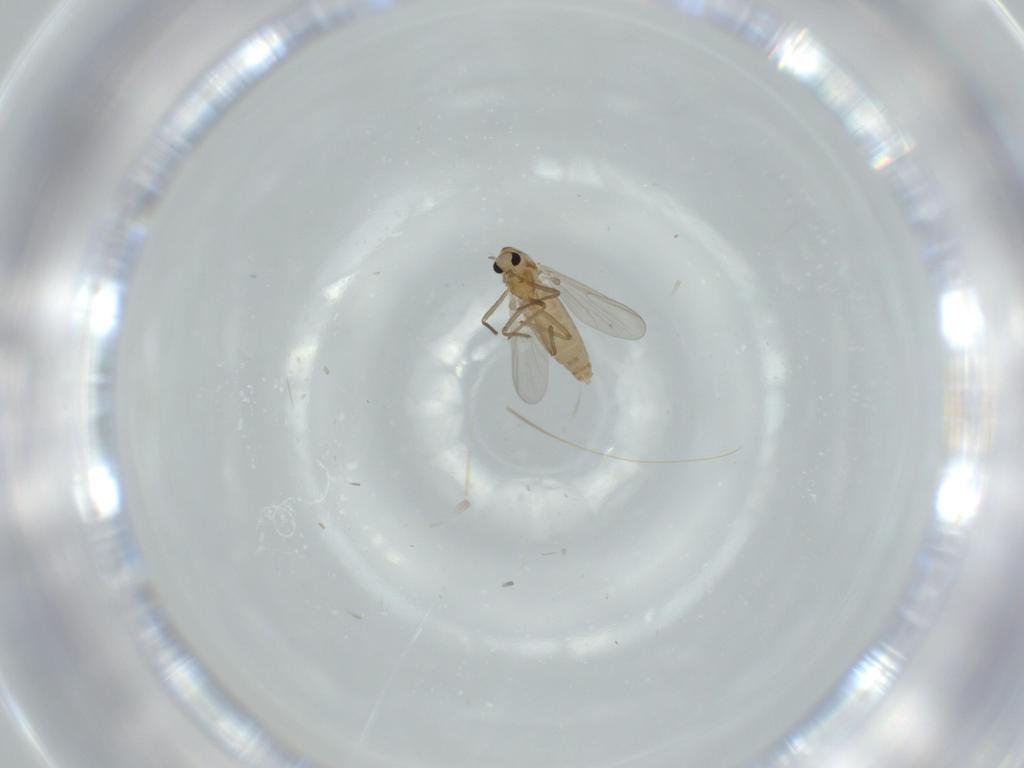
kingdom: Animalia
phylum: Arthropoda
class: Insecta
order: Diptera
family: Chironomidae
